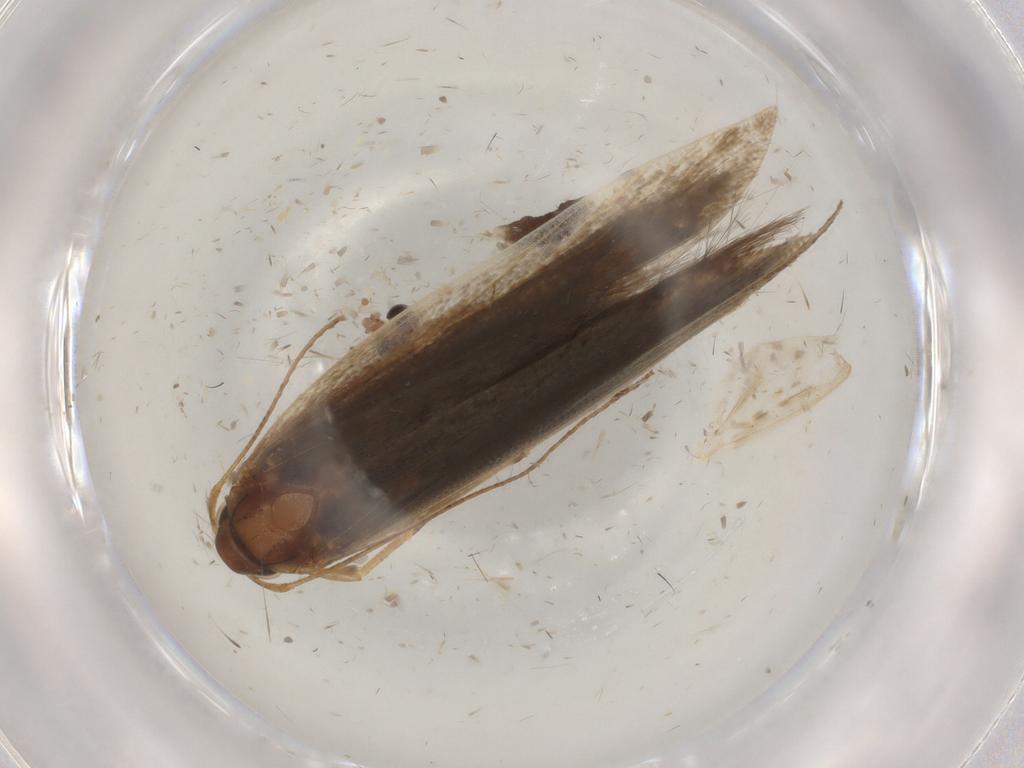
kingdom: Animalia
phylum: Arthropoda
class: Insecta
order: Lepidoptera
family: Gelechiidae
